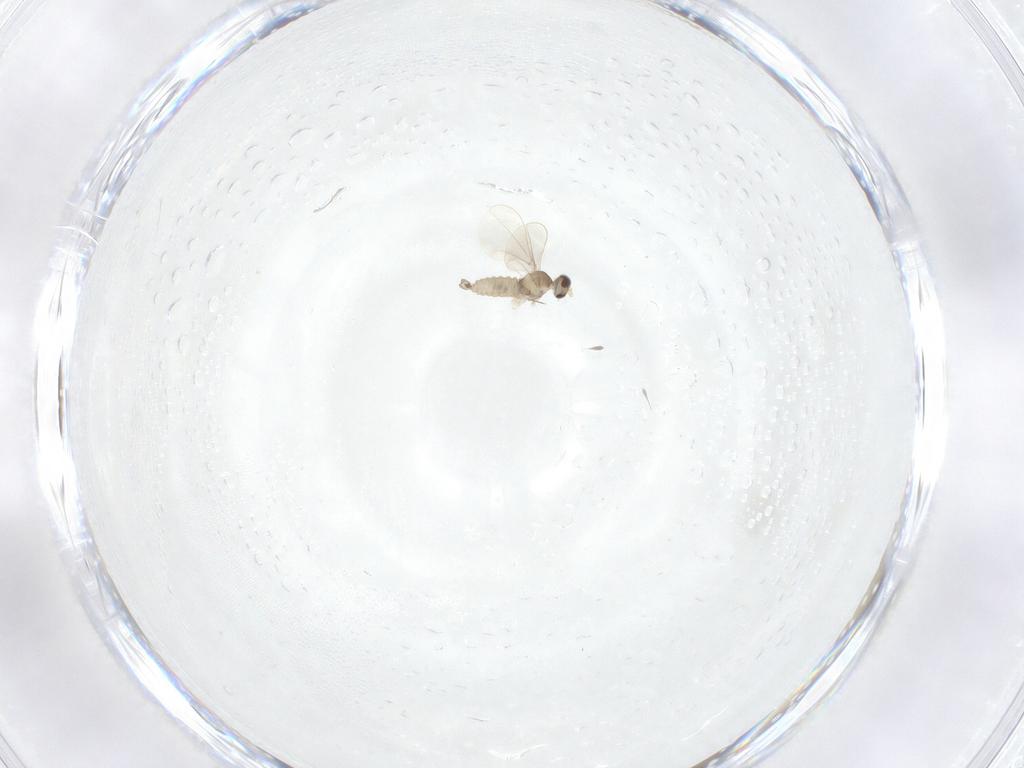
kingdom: Animalia
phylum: Arthropoda
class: Insecta
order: Diptera
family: Cecidomyiidae
